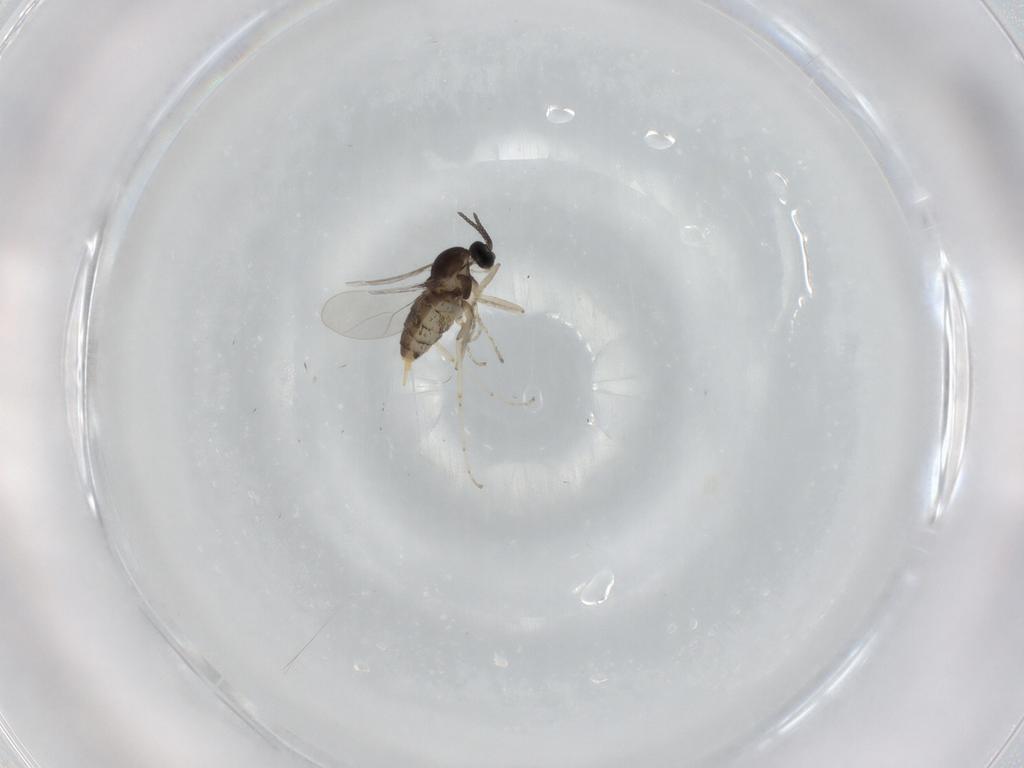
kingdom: Animalia
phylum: Arthropoda
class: Insecta
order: Diptera
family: Cecidomyiidae
